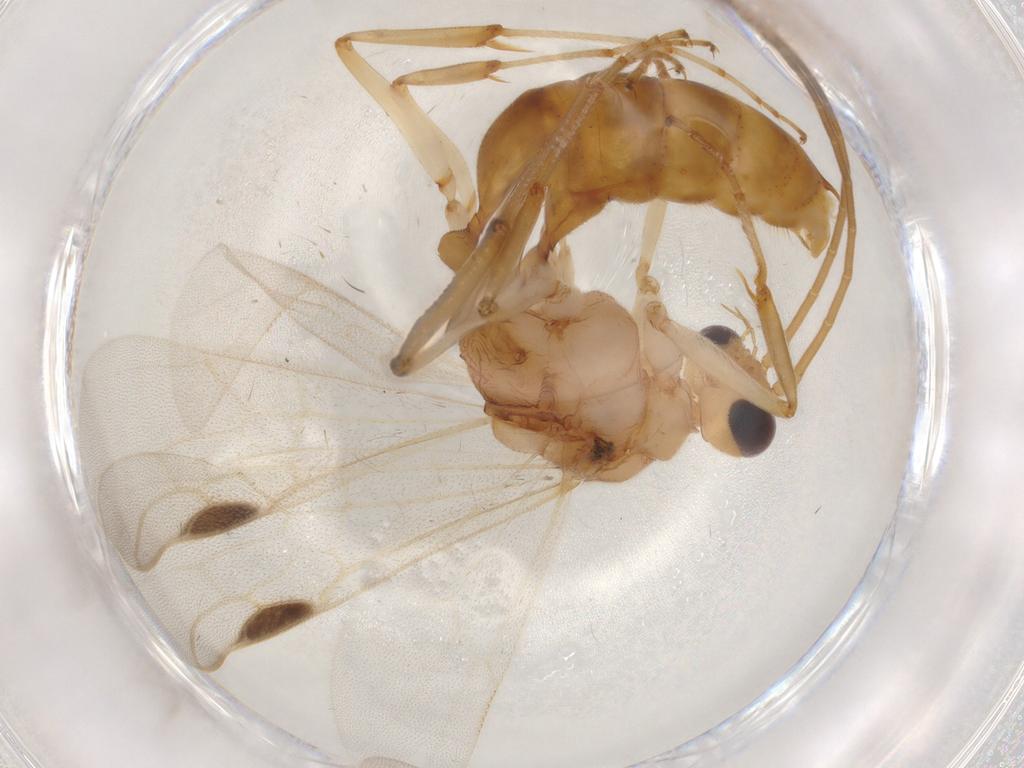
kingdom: Animalia
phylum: Arthropoda
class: Insecta
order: Hymenoptera
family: Formicidae
